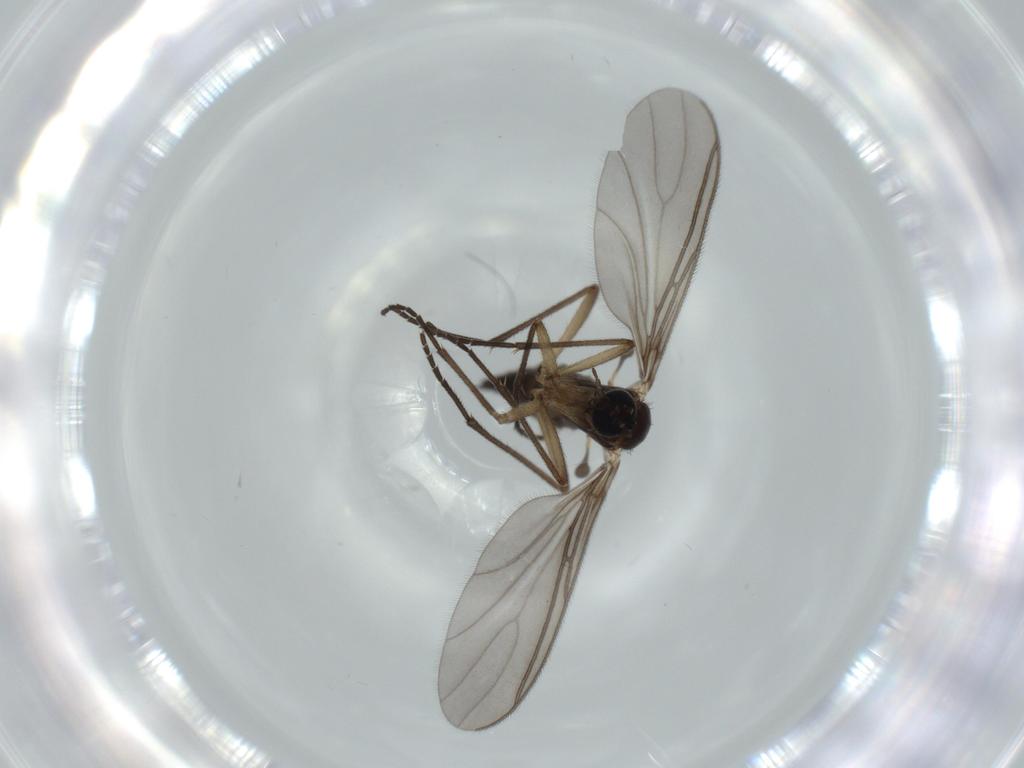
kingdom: Animalia
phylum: Arthropoda
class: Insecta
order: Diptera
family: Sciaridae
